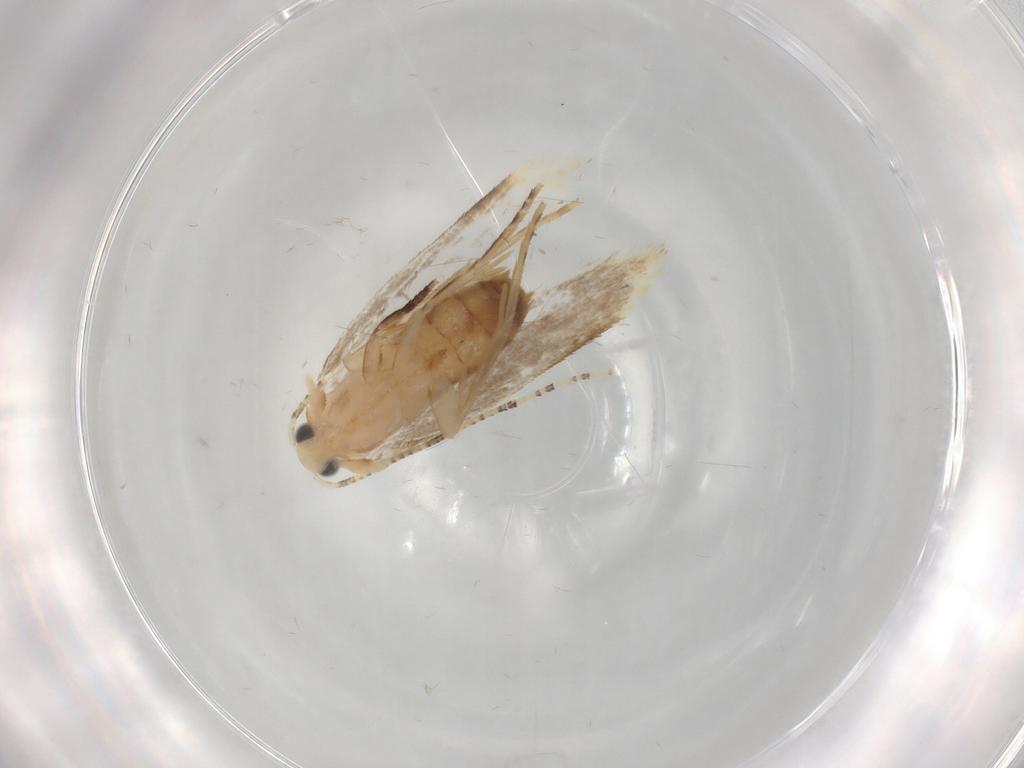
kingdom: Animalia
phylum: Arthropoda
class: Insecta
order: Lepidoptera
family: Dryadaulidae
